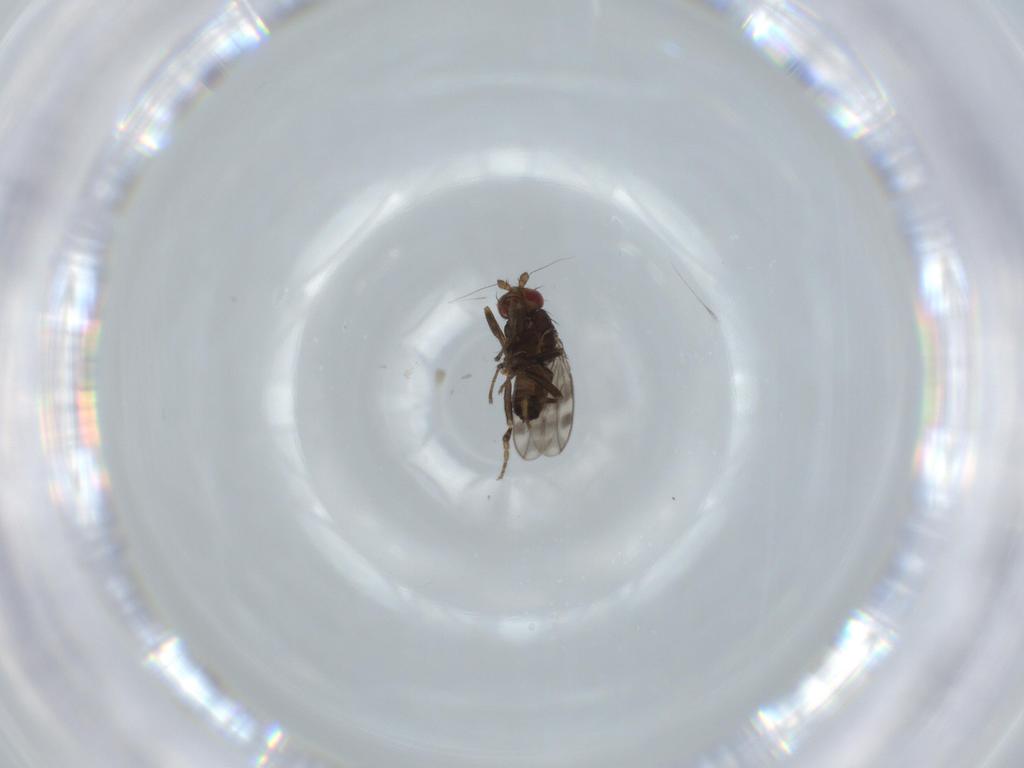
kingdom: Animalia
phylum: Arthropoda
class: Insecta
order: Diptera
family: Sphaeroceridae
